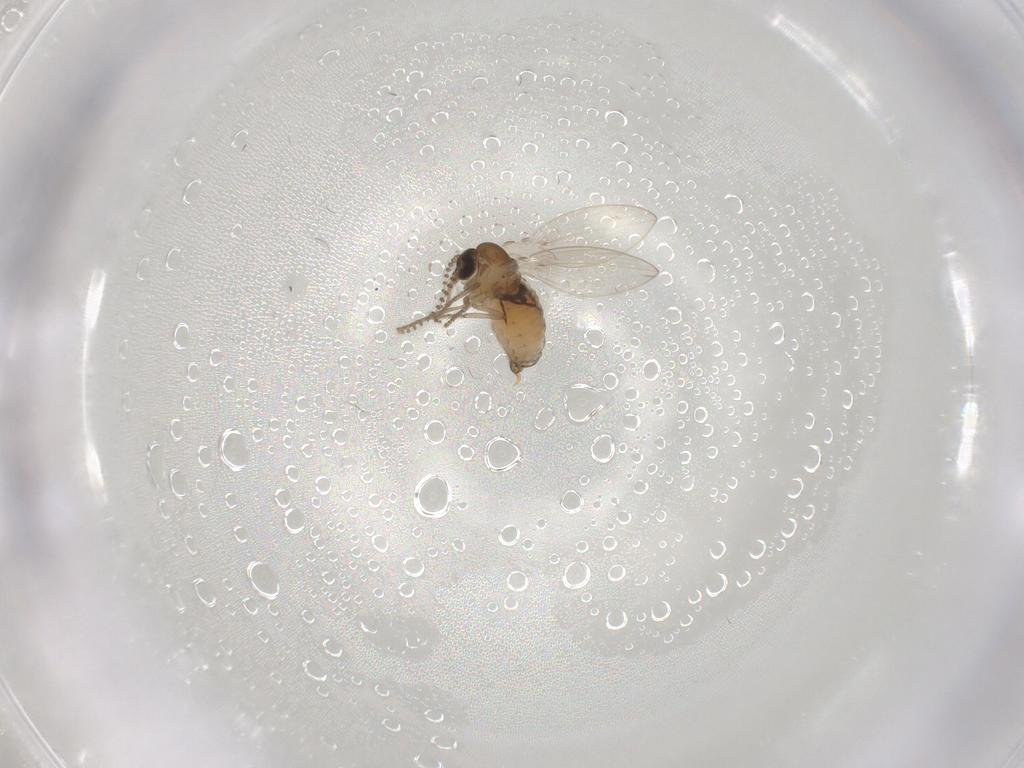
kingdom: Animalia
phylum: Arthropoda
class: Insecta
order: Diptera
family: Psychodidae
